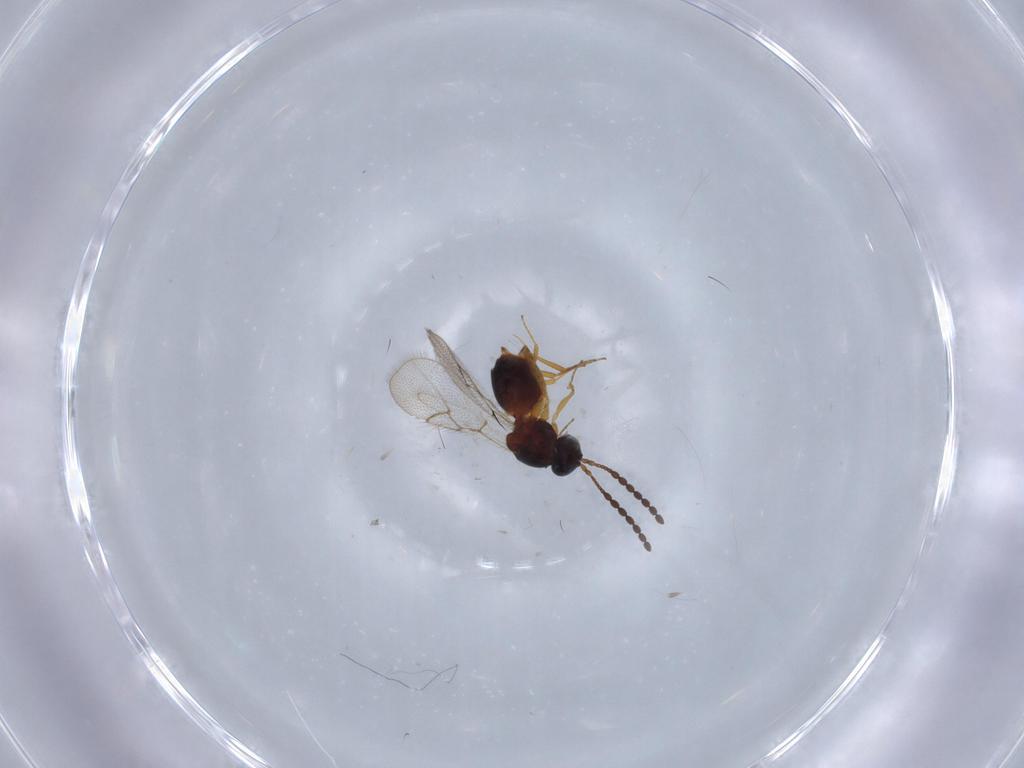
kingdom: Animalia
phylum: Arthropoda
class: Insecta
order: Hymenoptera
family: Figitidae
